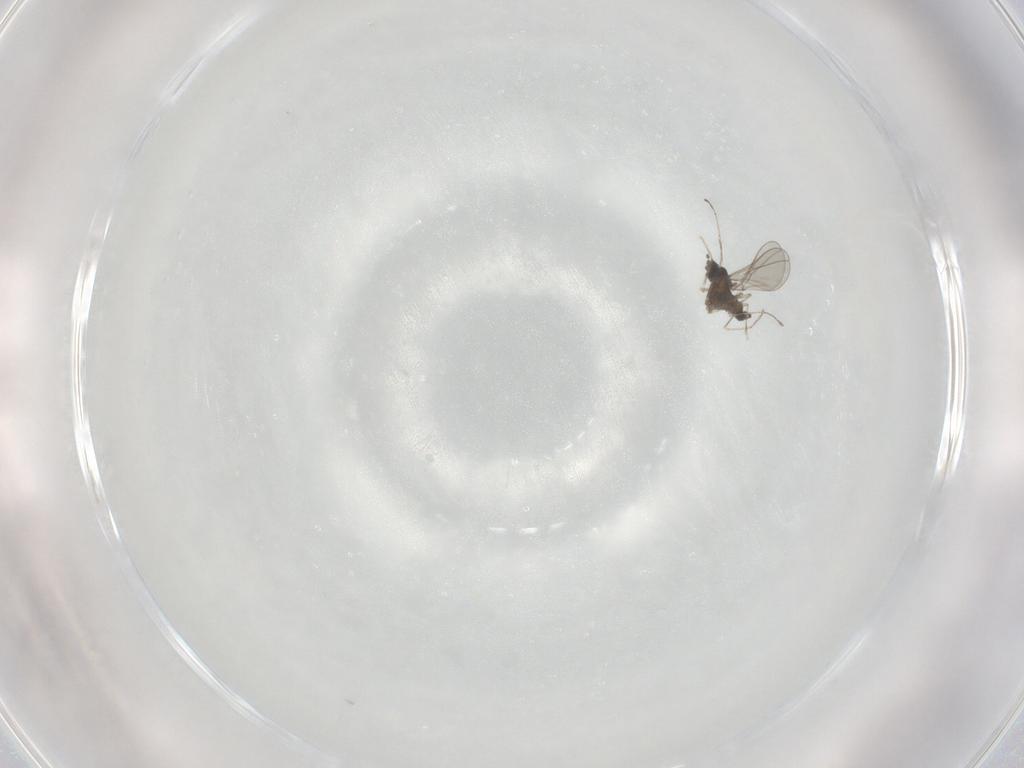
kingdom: Animalia
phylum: Arthropoda
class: Insecta
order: Diptera
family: Cecidomyiidae
